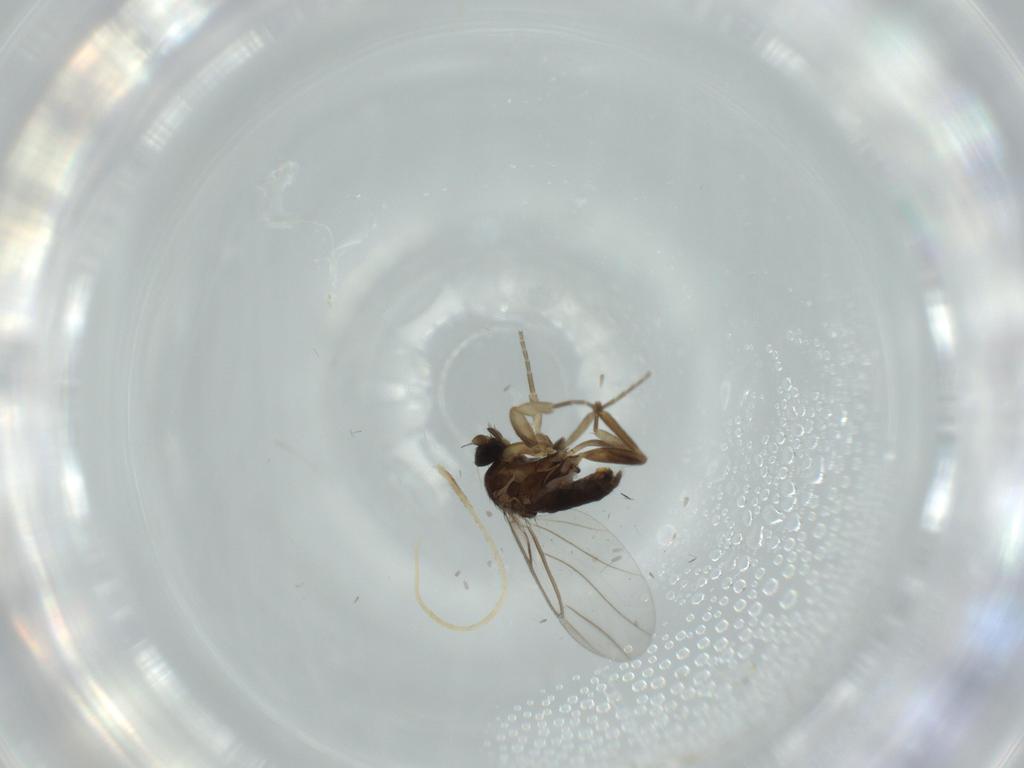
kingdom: Animalia
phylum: Arthropoda
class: Insecta
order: Diptera
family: Phoridae
